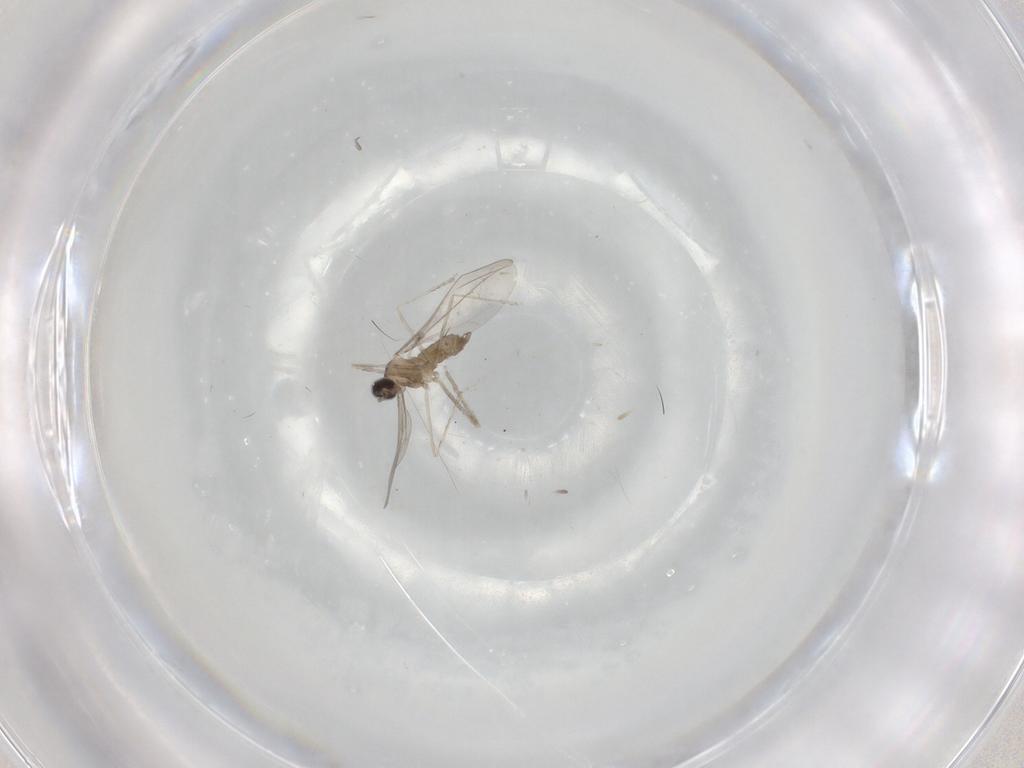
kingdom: Animalia
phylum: Arthropoda
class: Insecta
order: Diptera
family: Cecidomyiidae
